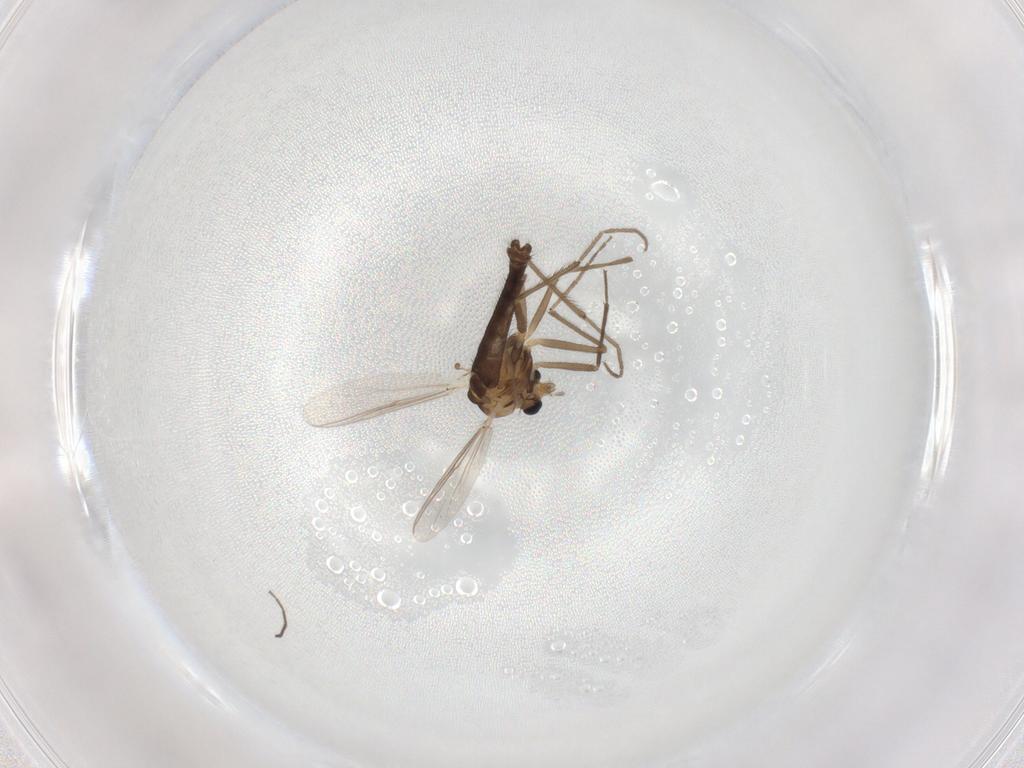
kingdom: Animalia
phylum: Arthropoda
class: Insecta
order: Diptera
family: Chironomidae
